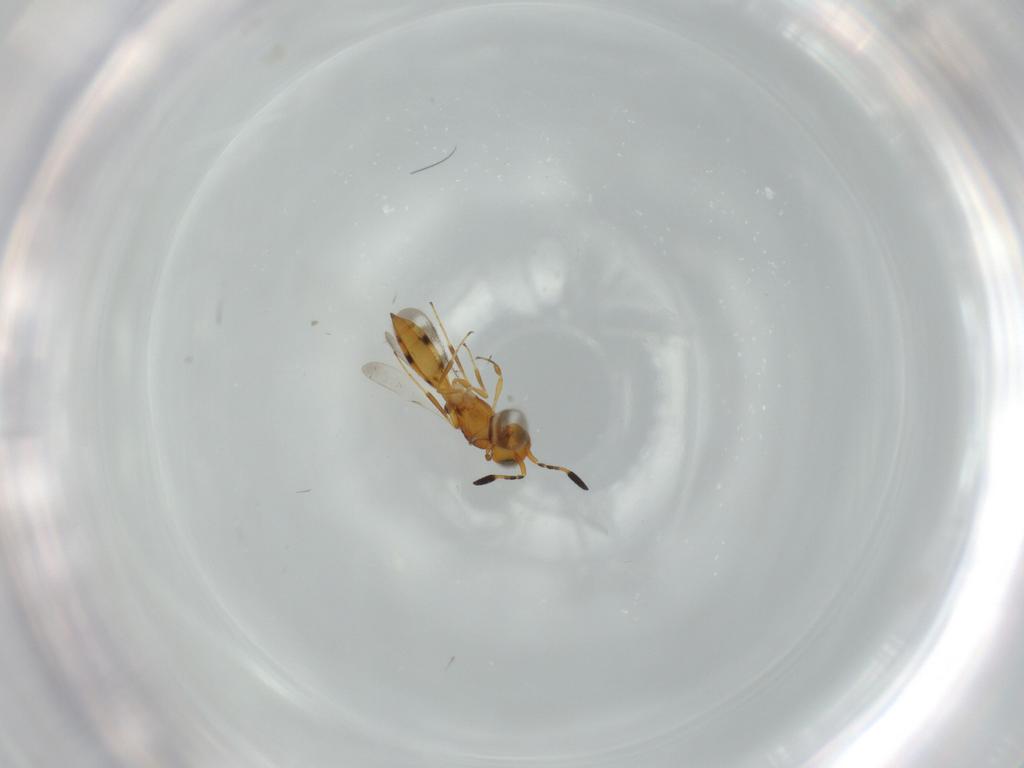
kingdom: Animalia
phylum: Arthropoda
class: Insecta
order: Hymenoptera
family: Scelionidae
